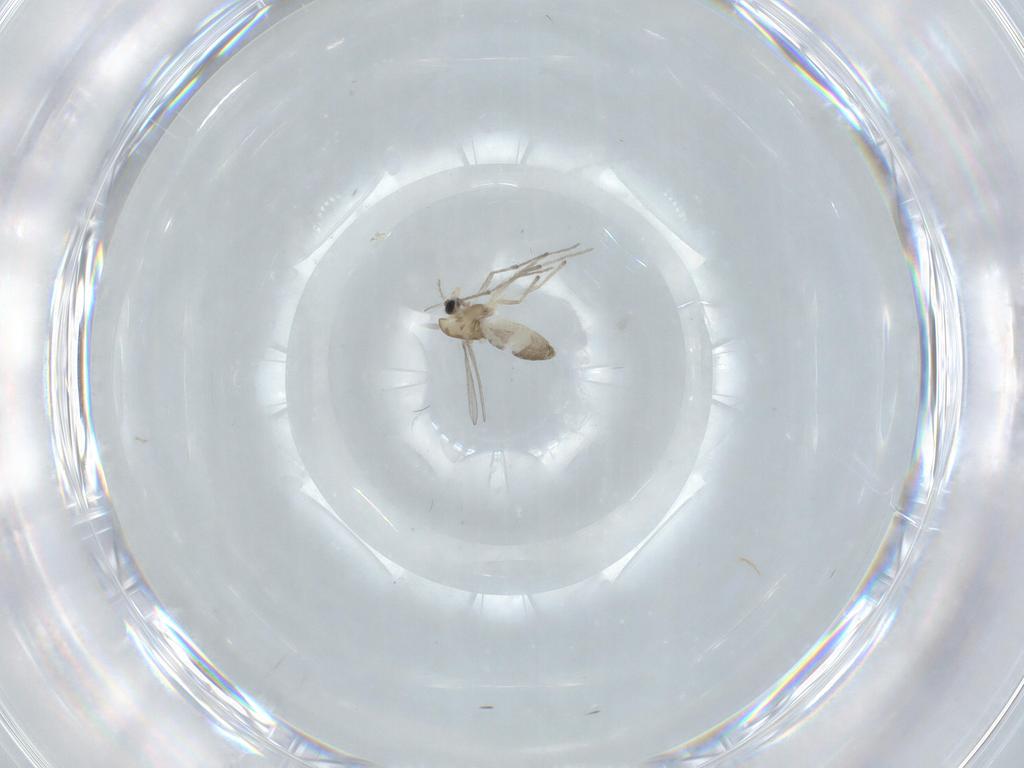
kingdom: Animalia
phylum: Arthropoda
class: Insecta
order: Diptera
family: Chironomidae
